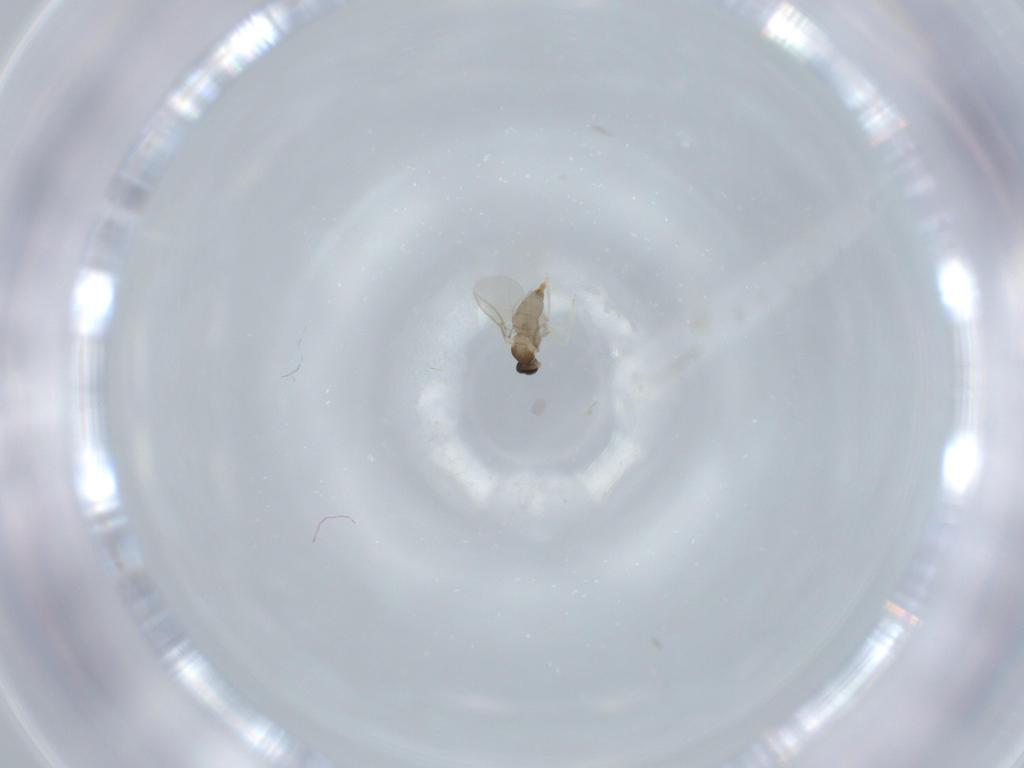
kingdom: Animalia
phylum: Arthropoda
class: Insecta
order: Diptera
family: Cecidomyiidae
